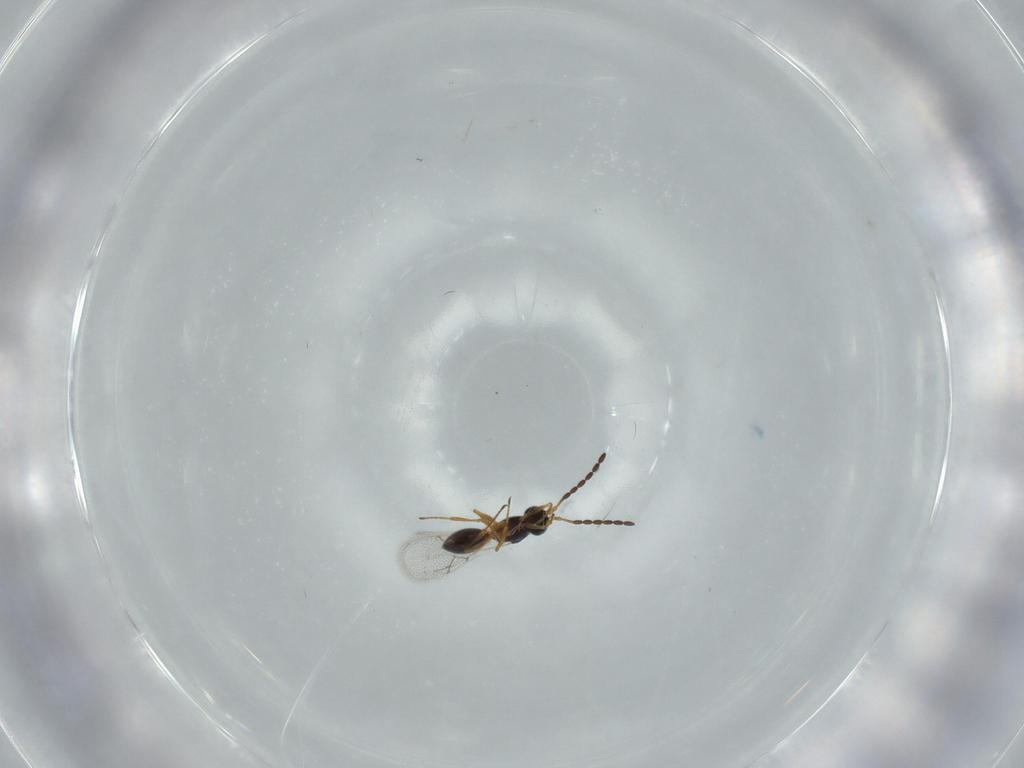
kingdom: Animalia
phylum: Arthropoda
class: Insecta
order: Hymenoptera
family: Figitidae
